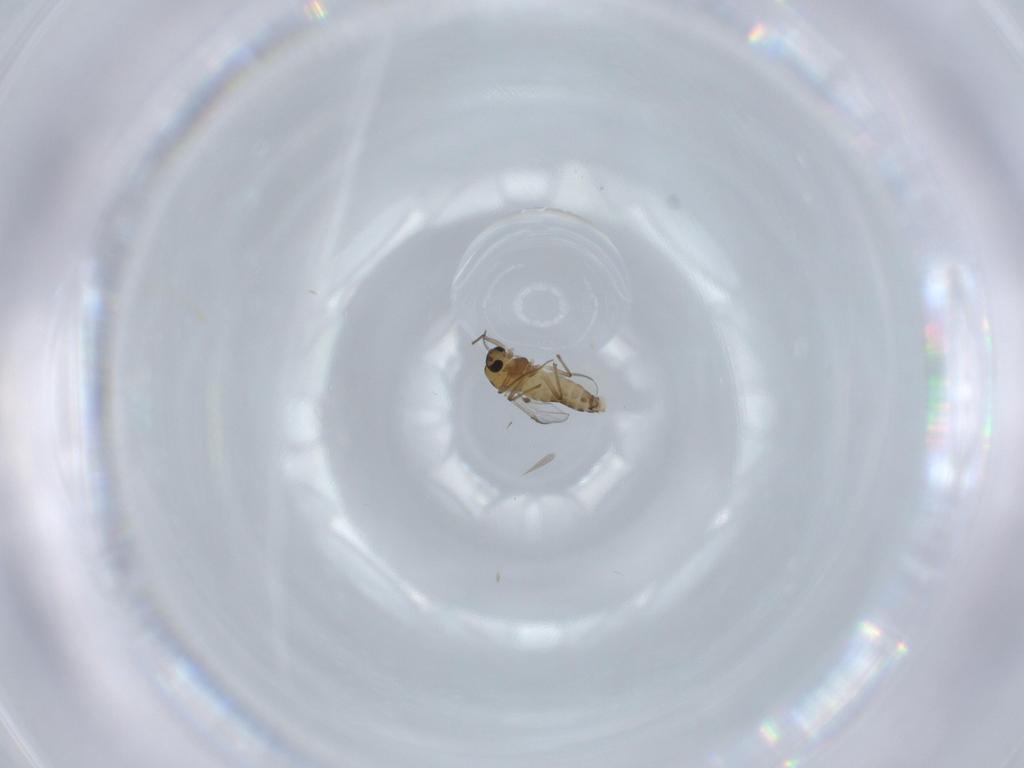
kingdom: Animalia
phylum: Arthropoda
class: Insecta
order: Diptera
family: Chironomidae
